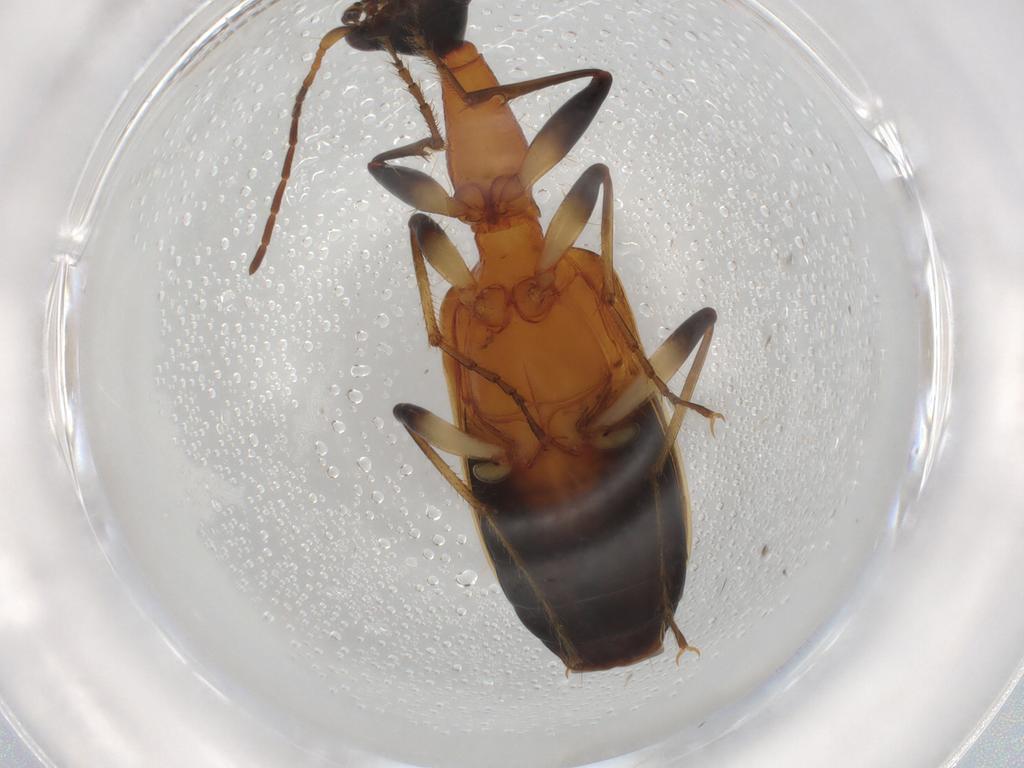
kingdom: Animalia
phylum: Arthropoda
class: Insecta
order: Coleoptera
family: Carabidae
